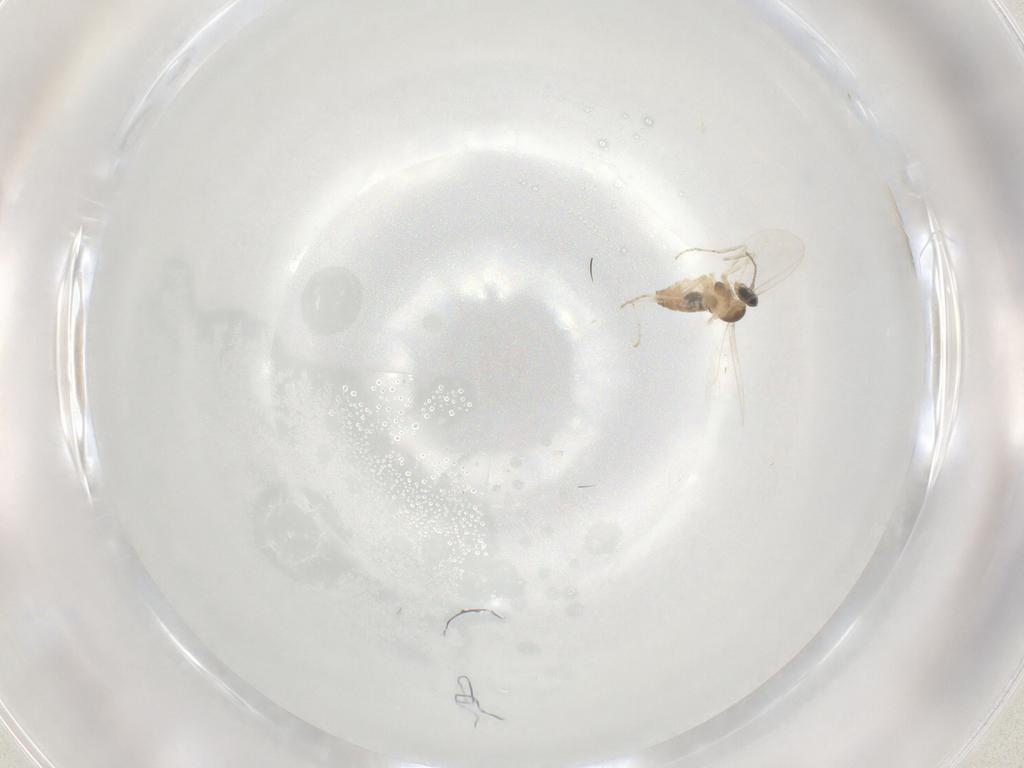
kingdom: Animalia
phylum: Arthropoda
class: Insecta
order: Diptera
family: Cecidomyiidae
